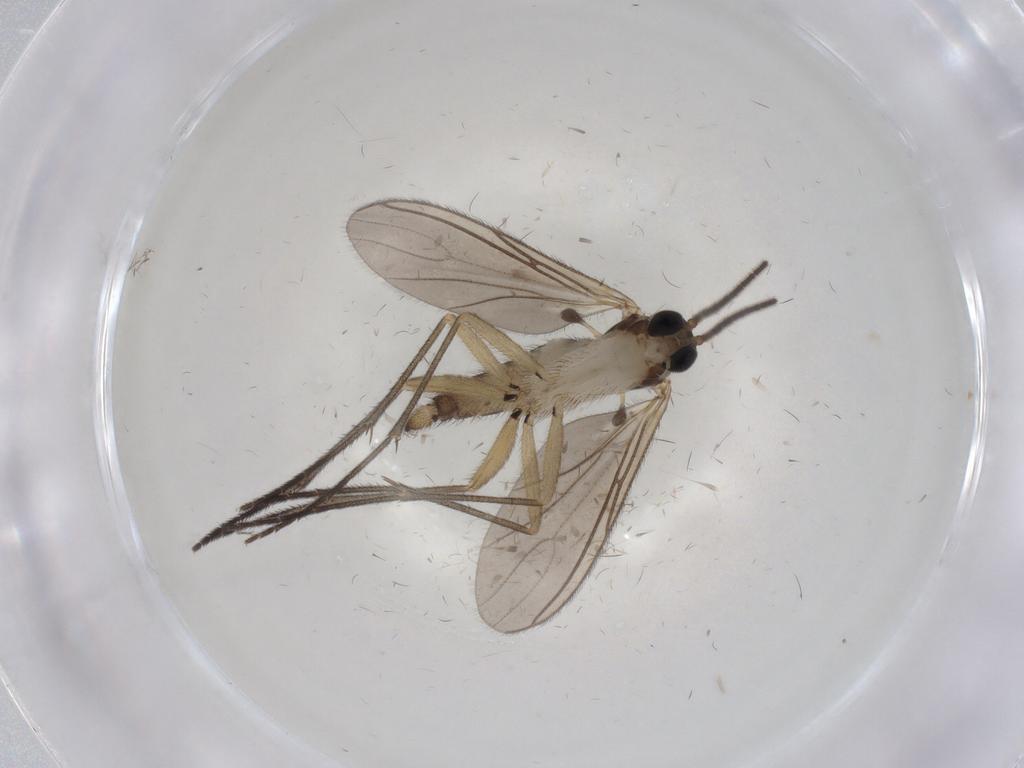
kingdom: Animalia
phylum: Arthropoda
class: Insecta
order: Diptera
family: Sciaridae
